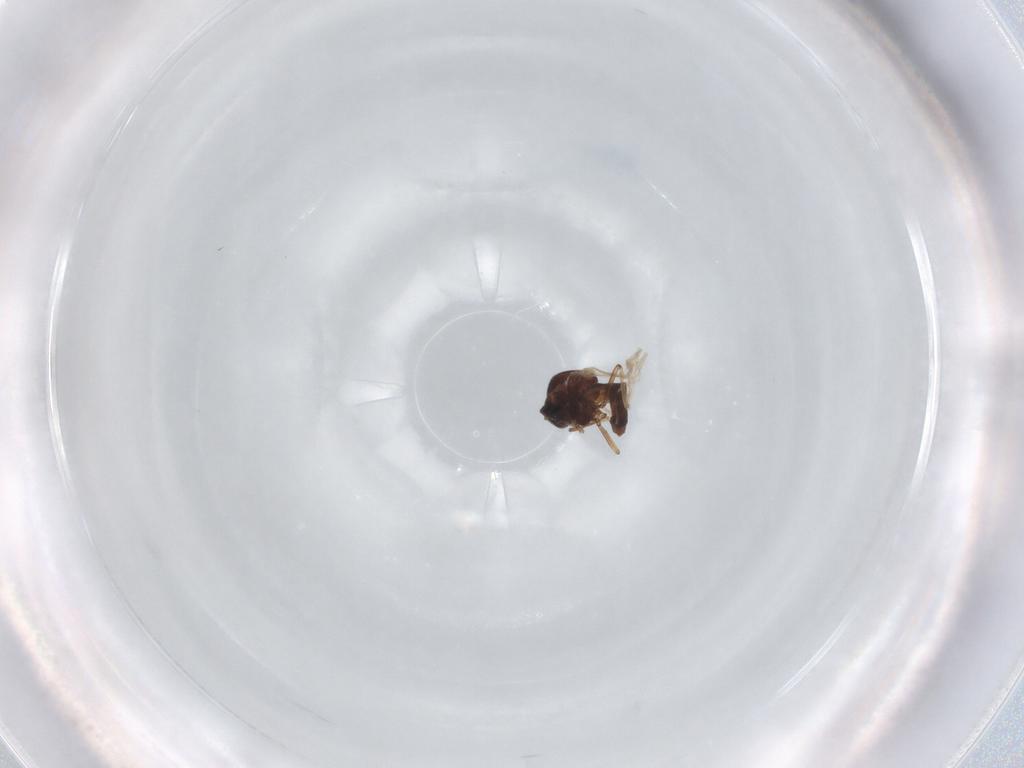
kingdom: Animalia
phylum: Arthropoda
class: Insecta
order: Diptera
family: Ceratopogonidae
